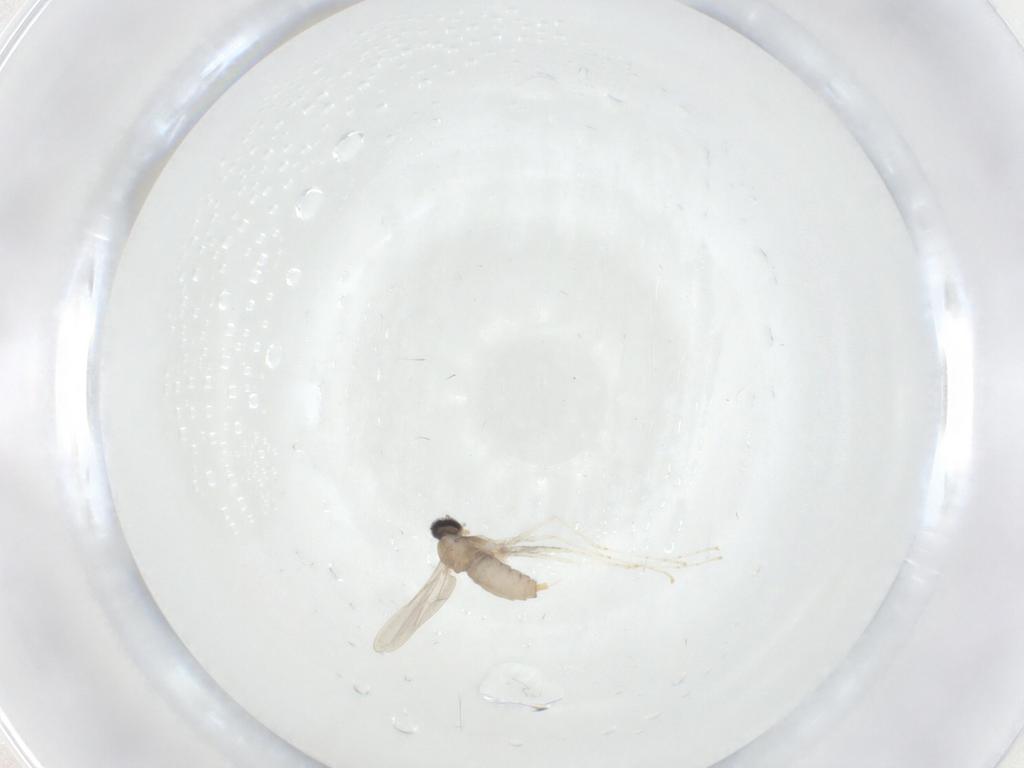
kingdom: Animalia
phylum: Arthropoda
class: Insecta
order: Diptera
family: Cecidomyiidae
